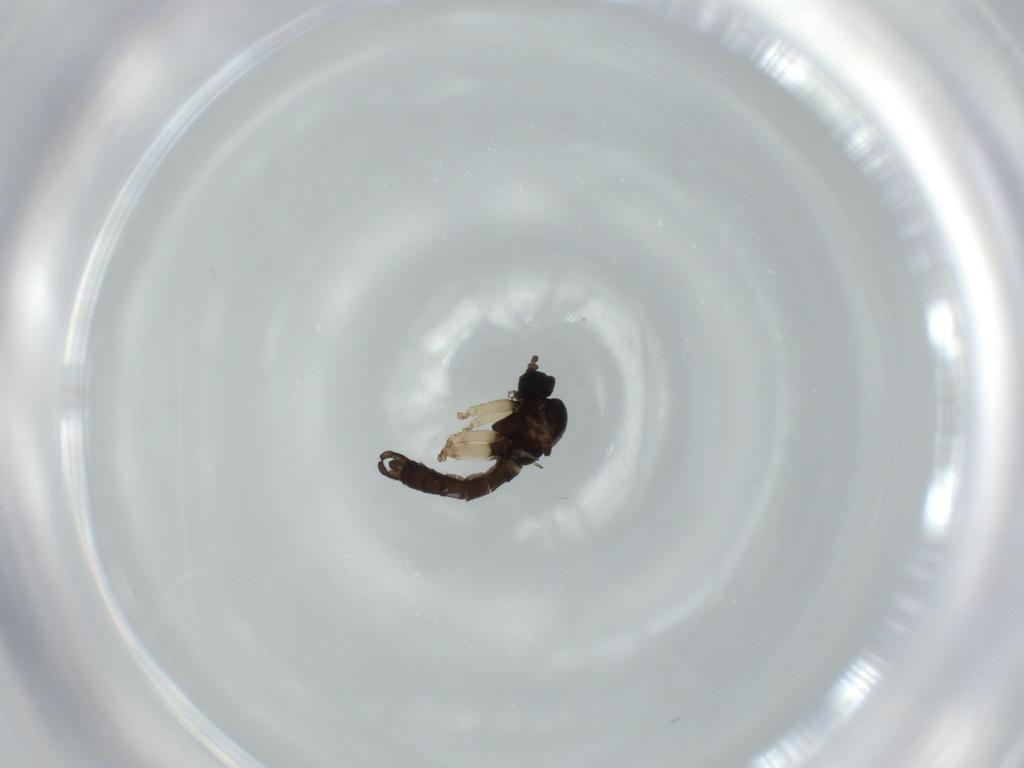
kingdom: Animalia
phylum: Arthropoda
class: Insecta
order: Diptera
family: Sciaridae
